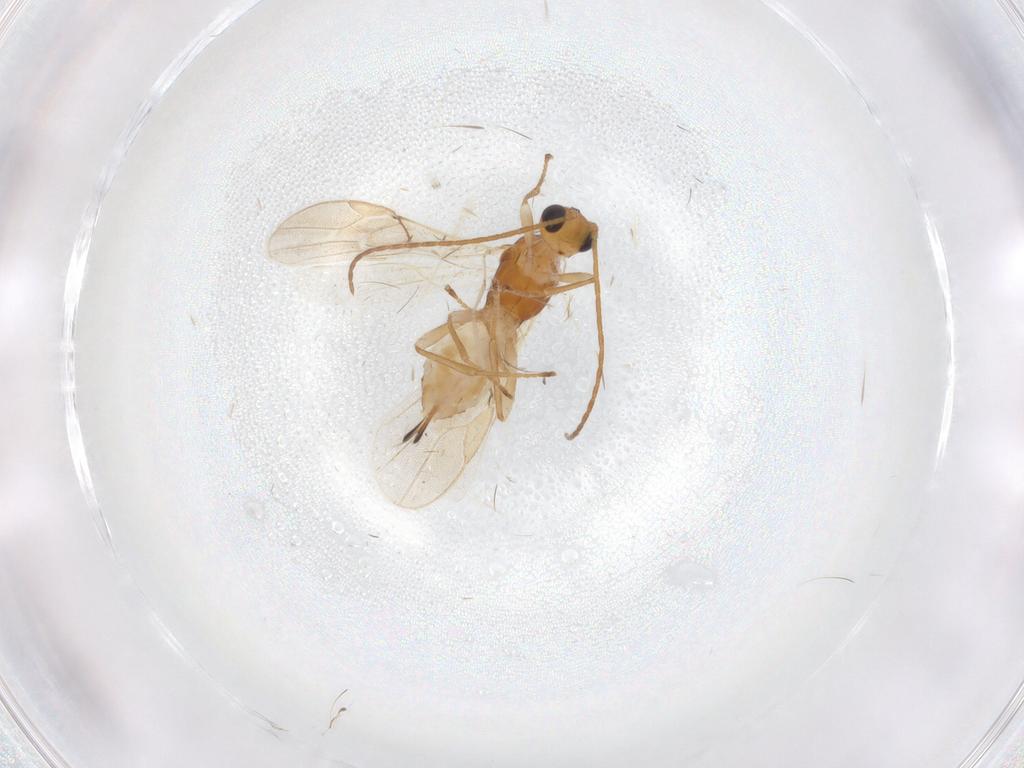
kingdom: Animalia
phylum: Arthropoda
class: Insecta
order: Hymenoptera
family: Braconidae
